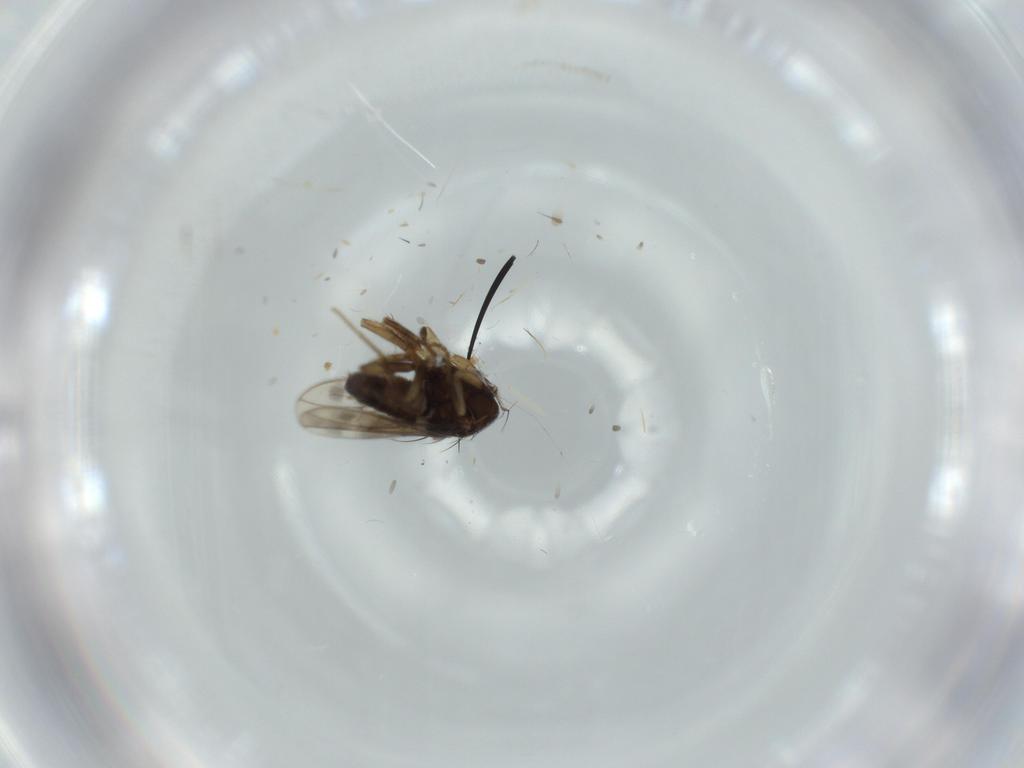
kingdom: Animalia
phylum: Arthropoda
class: Insecta
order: Diptera
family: Sphaeroceridae
